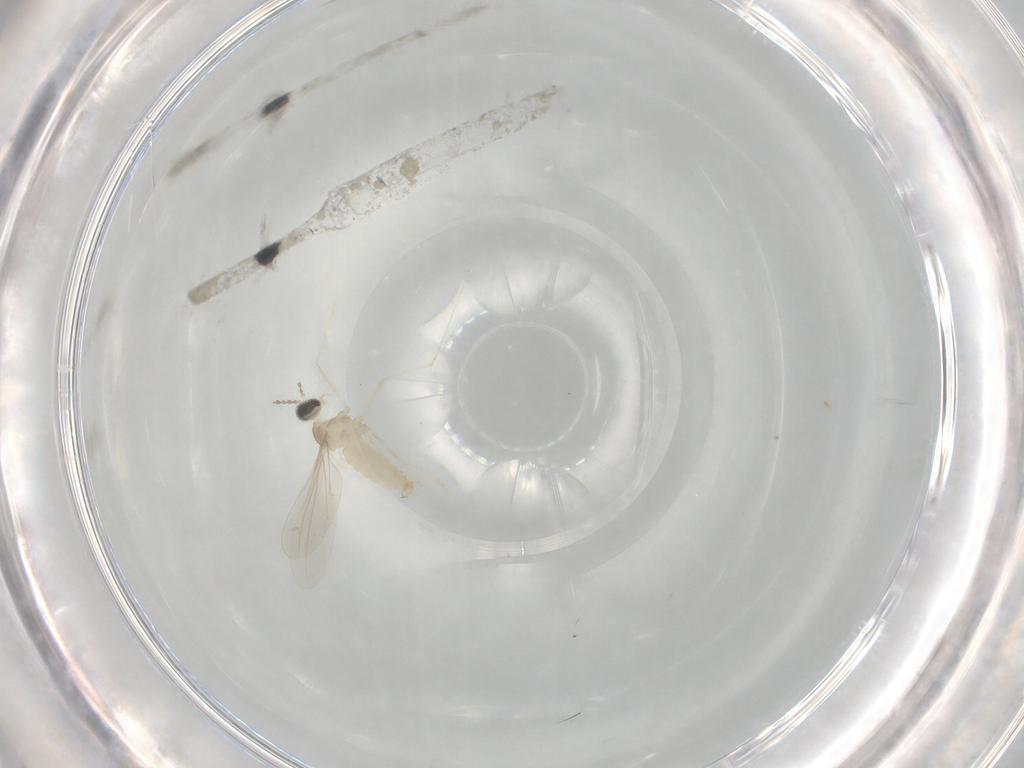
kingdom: Animalia
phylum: Arthropoda
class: Insecta
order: Diptera
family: Cecidomyiidae
